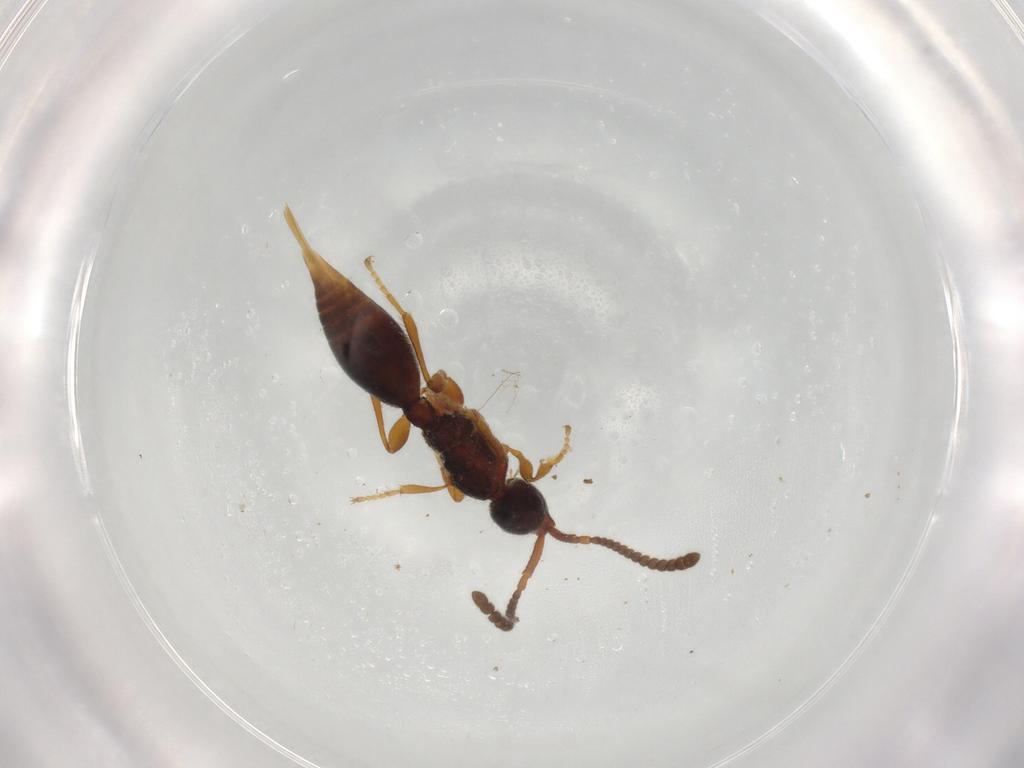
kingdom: Animalia
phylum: Arthropoda
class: Insecta
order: Hymenoptera
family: Diapriidae
